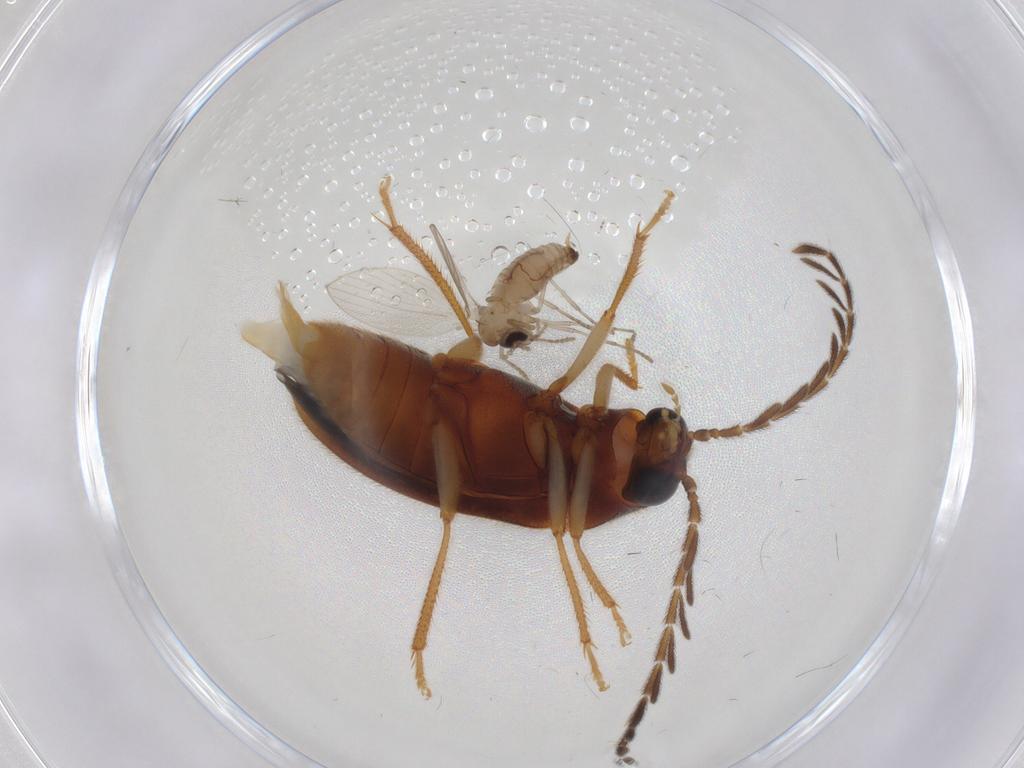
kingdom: Animalia
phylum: Arthropoda
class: Insecta
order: Diptera
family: Psychodidae
